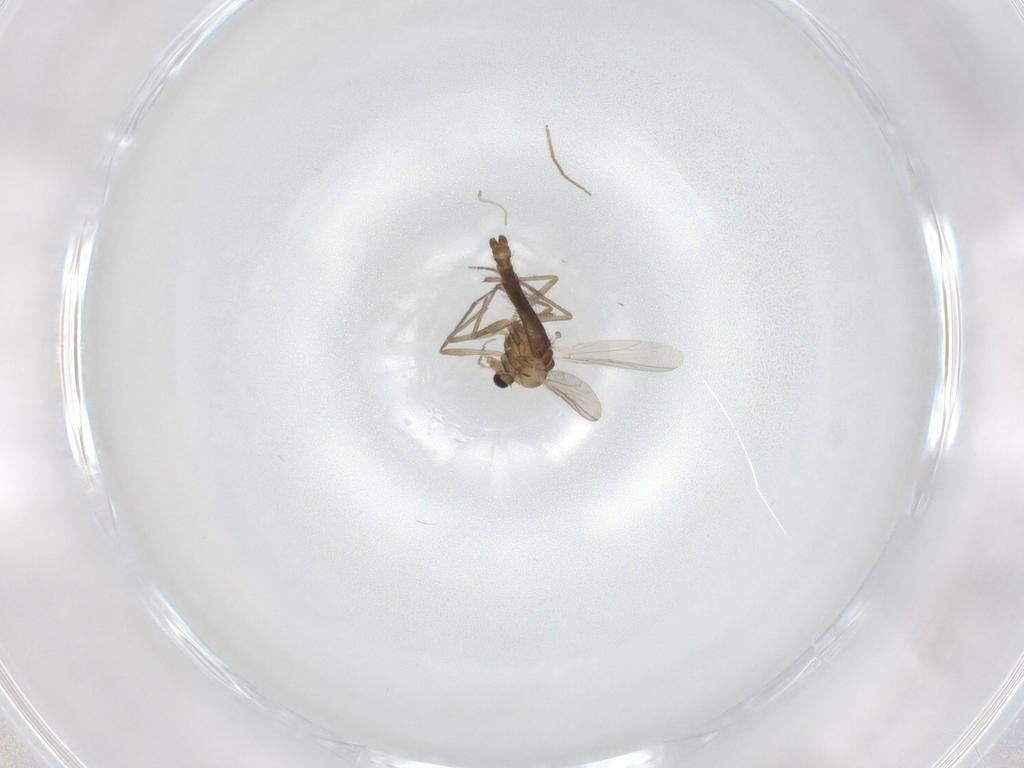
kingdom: Animalia
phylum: Arthropoda
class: Insecta
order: Diptera
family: Chironomidae
